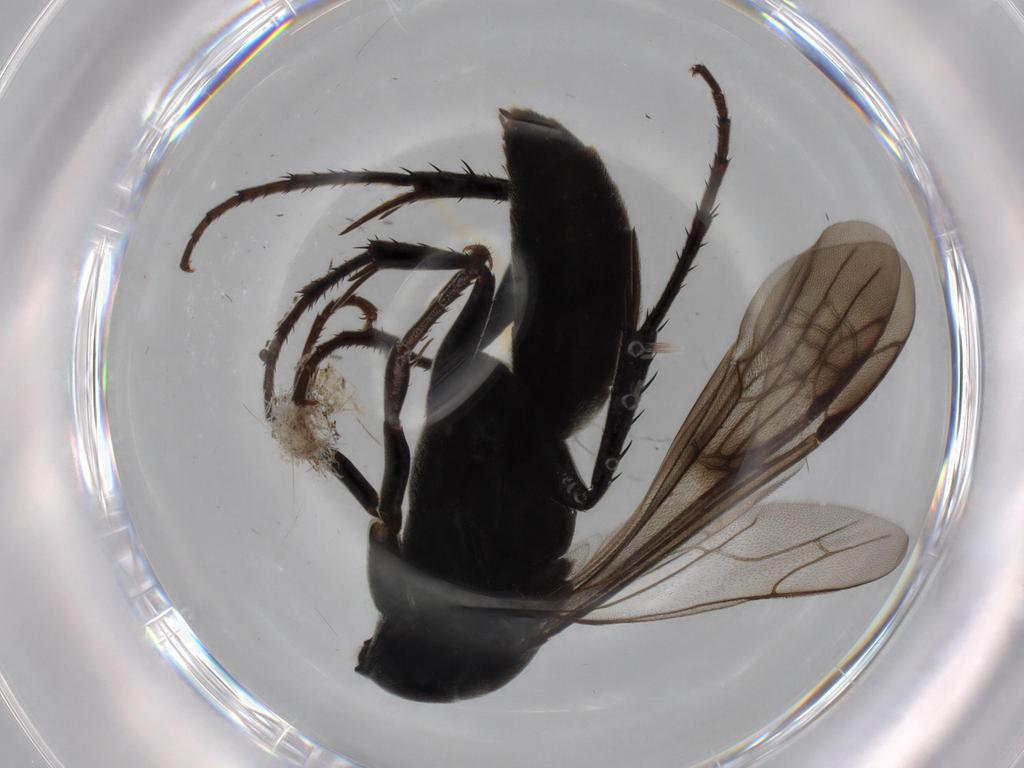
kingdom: Animalia
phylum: Arthropoda
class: Insecta
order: Hymenoptera
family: Pompilidae
